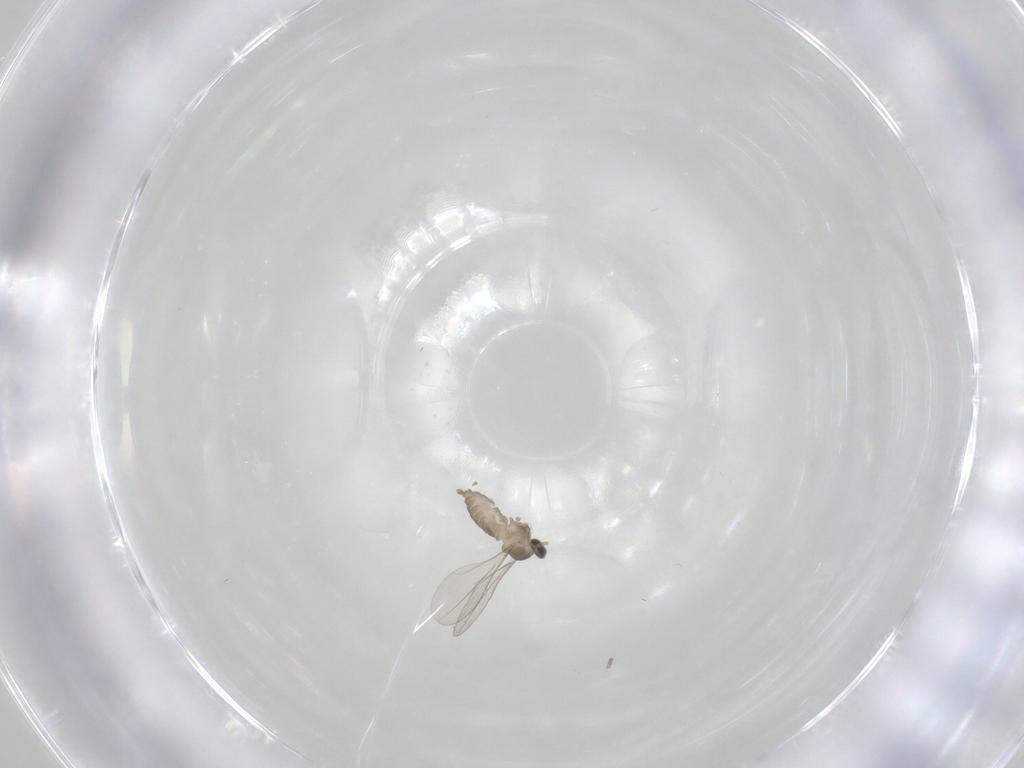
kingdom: Animalia
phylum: Arthropoda
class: Insecta
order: Diptera
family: Cecidomyiidae
